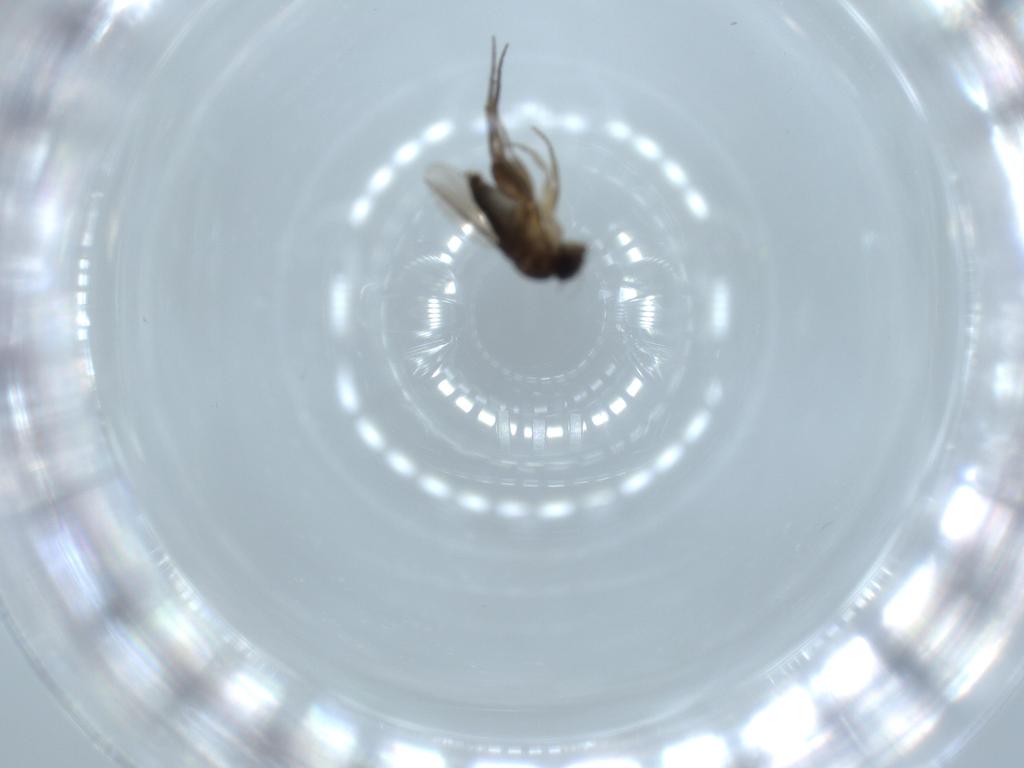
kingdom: Animalia
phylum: Arthropoda
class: Insecta
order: Diptera
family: Phoridae
